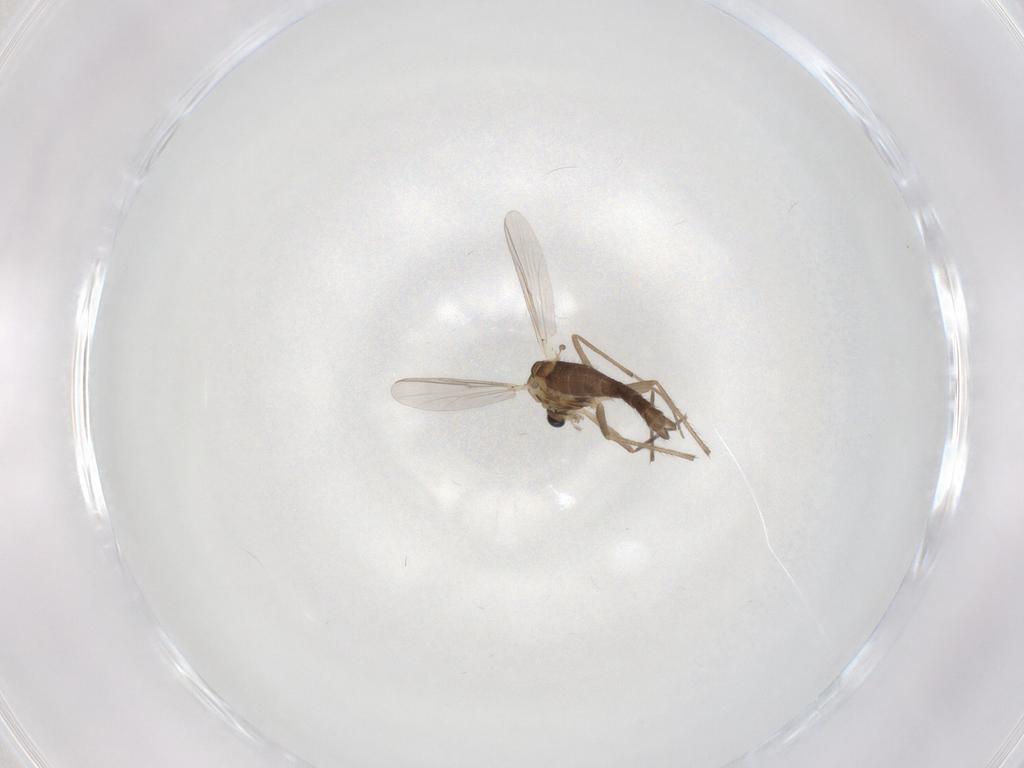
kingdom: Animalia
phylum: Arthropoda
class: Insecta
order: Diptera
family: Chironomidae
